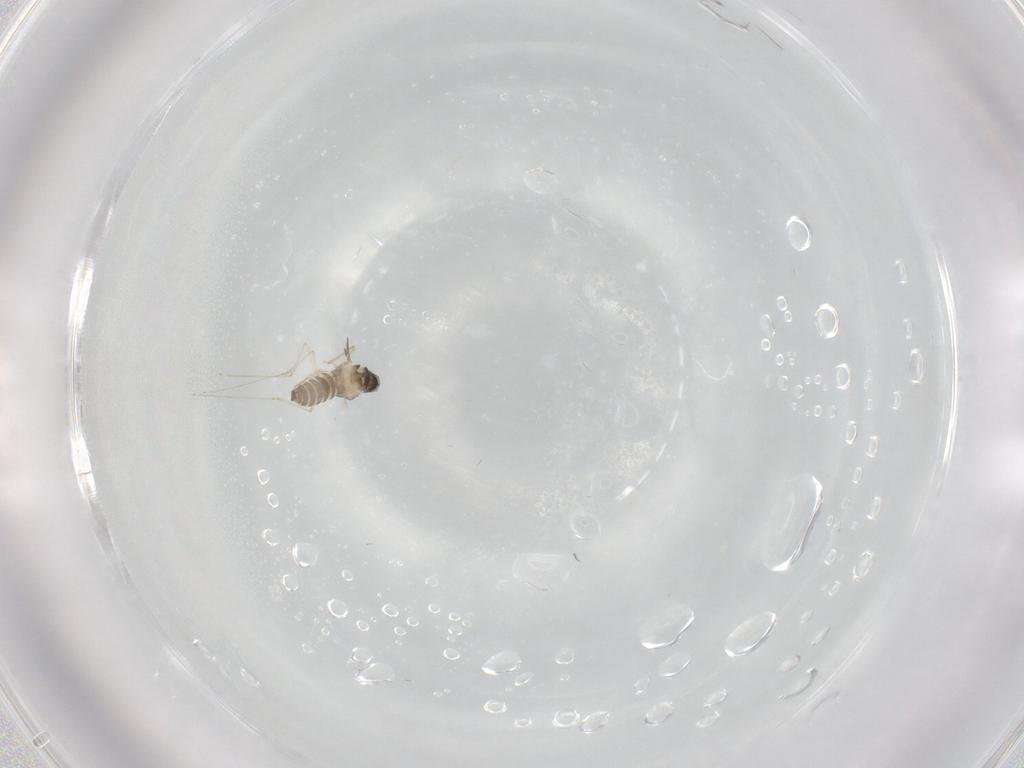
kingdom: Animalia
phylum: Arthropoda
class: Insecta
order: Diptera
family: Cecidomyiidae
